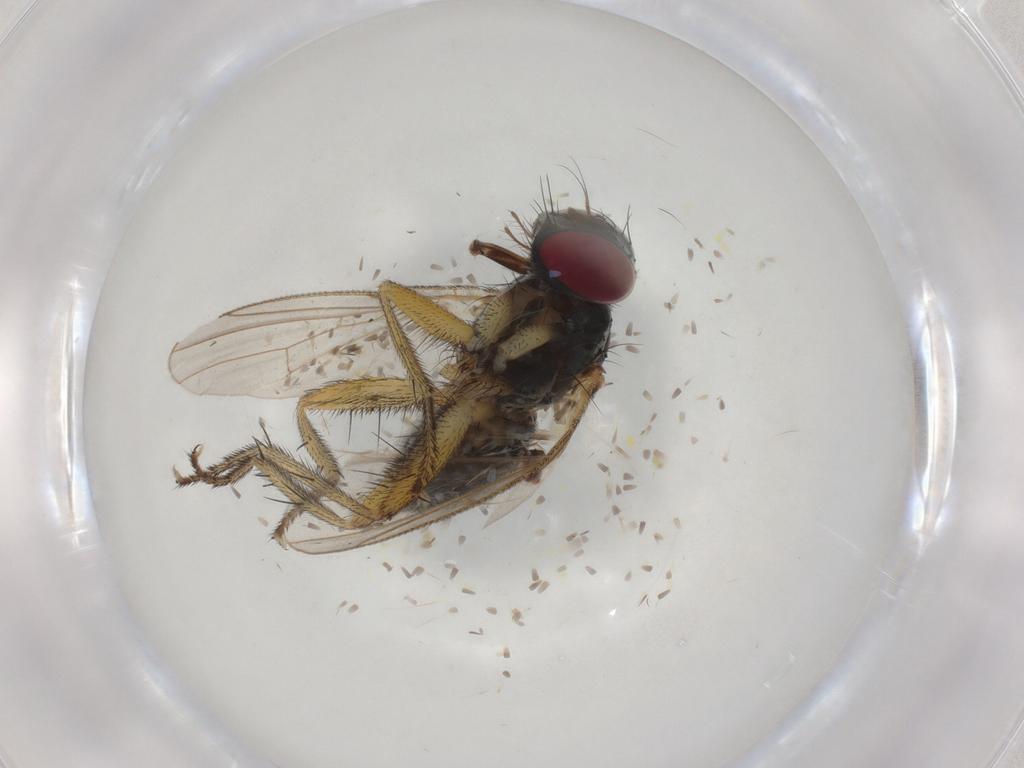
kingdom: Animalia
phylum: Arthropoda
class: Insecta
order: Diptera
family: Muscidae
